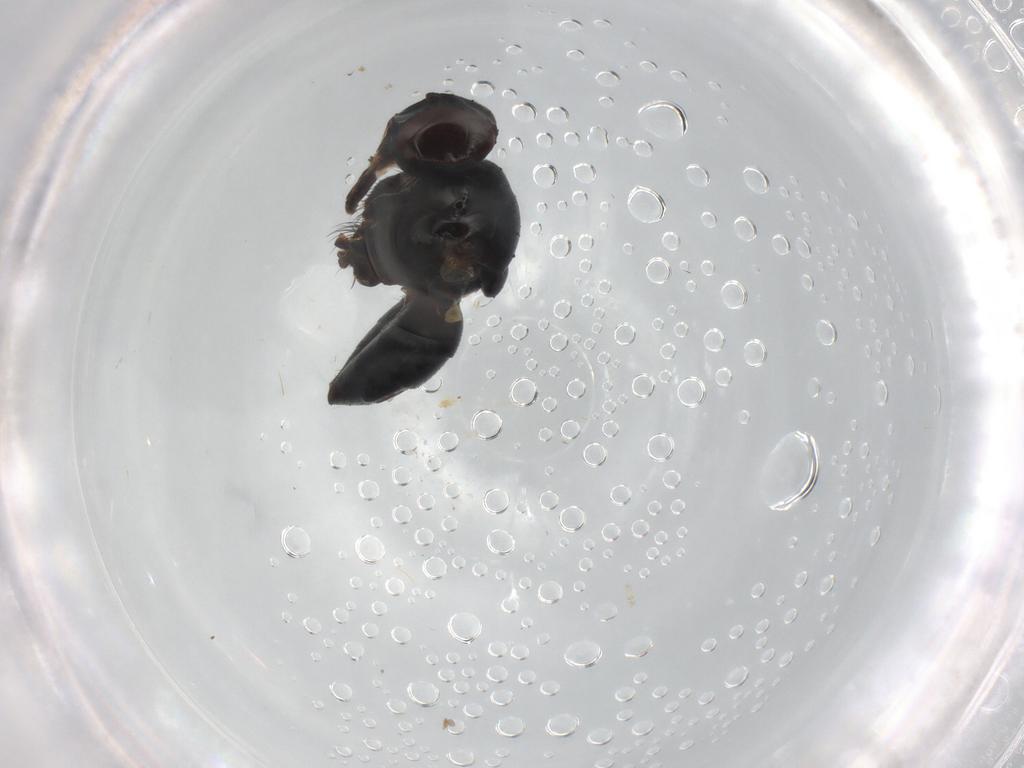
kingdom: Animalia
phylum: Arthropoda
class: Insecta
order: Diptera
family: Muscidae
